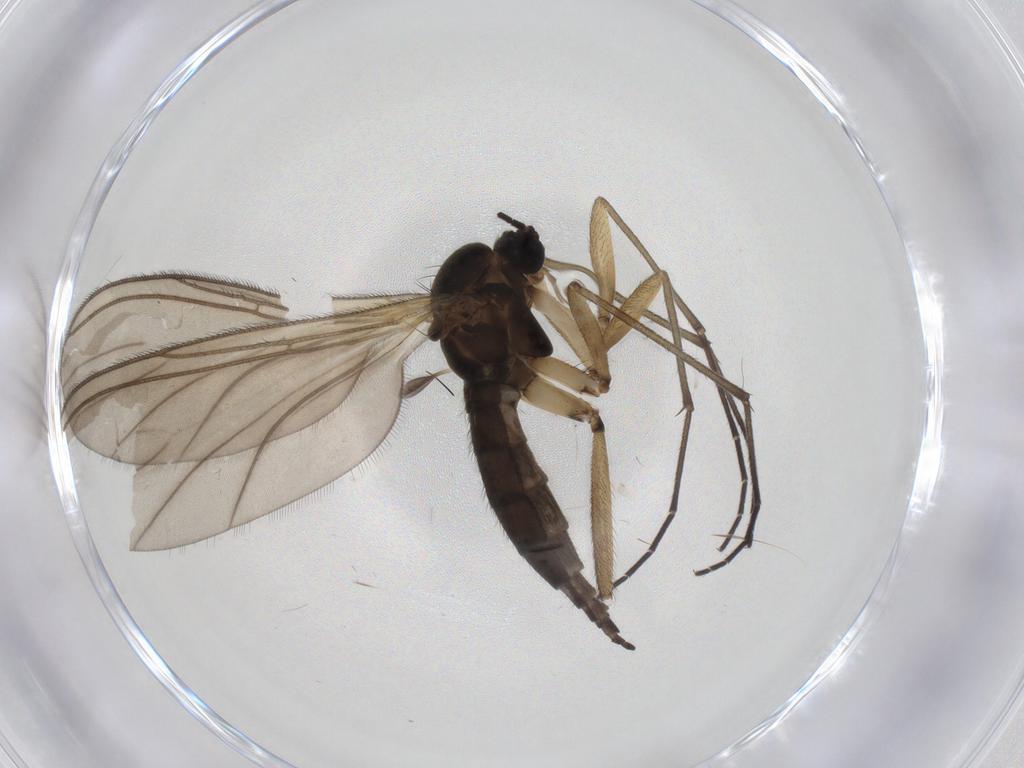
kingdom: Animalia
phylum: Arthropoda
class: Insecta
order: Diptera
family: Sciaridae
